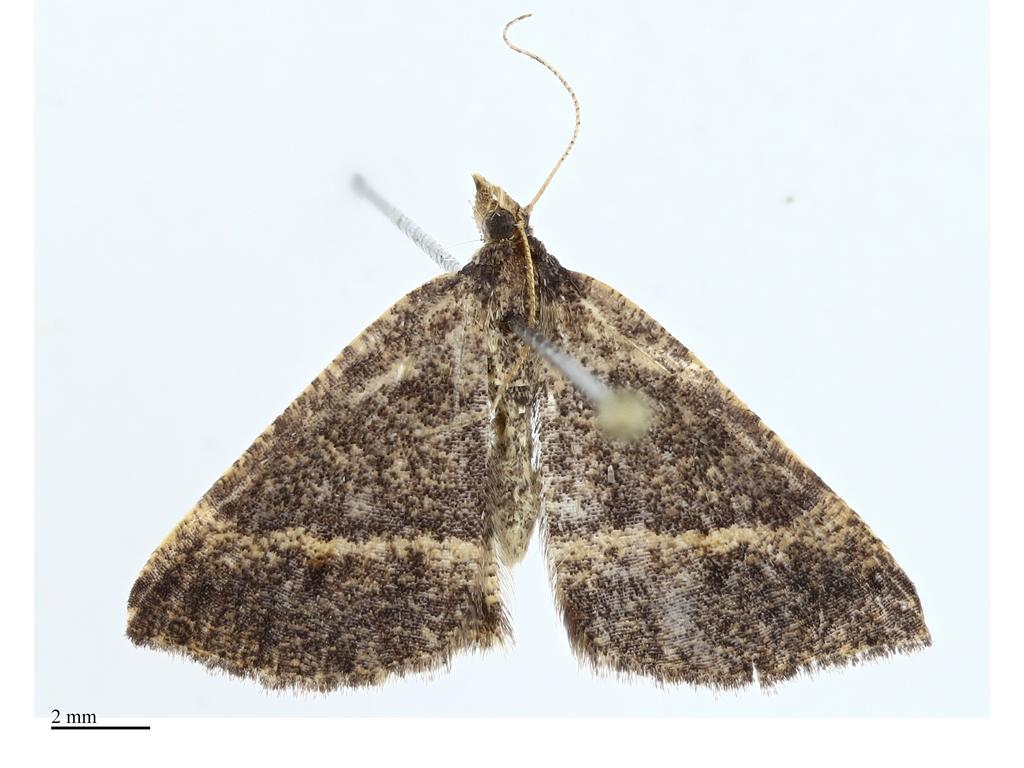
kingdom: Animalia
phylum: Arthropoda
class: Insecta
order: Lepidoptera
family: Geometridae
